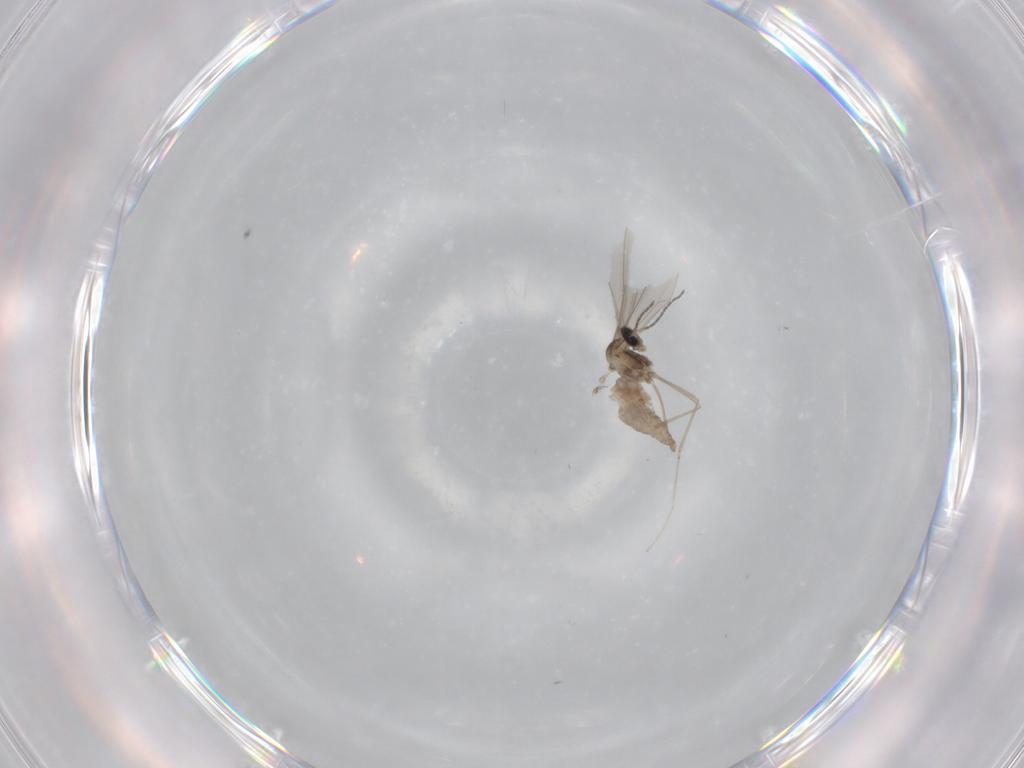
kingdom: Animalia
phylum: Arthropoda
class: Insecta
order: Diptera
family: Cecidomyiidae
